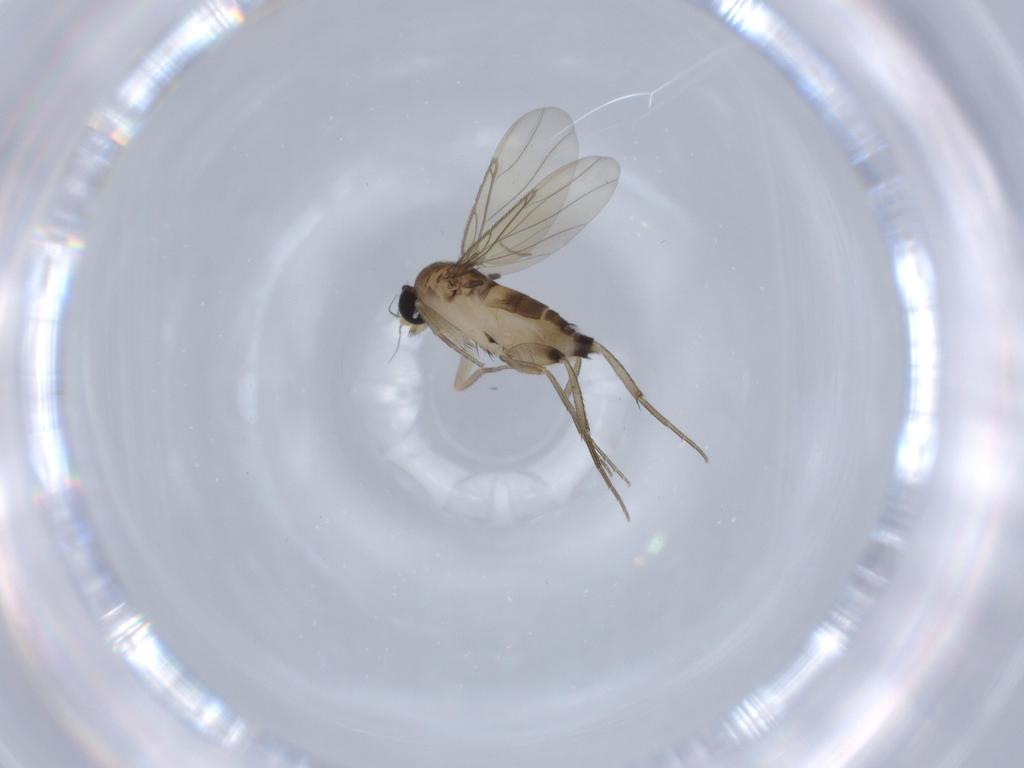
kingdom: Animalia
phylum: Arthropoda
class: Insecta
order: Diptera
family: Phoridae
